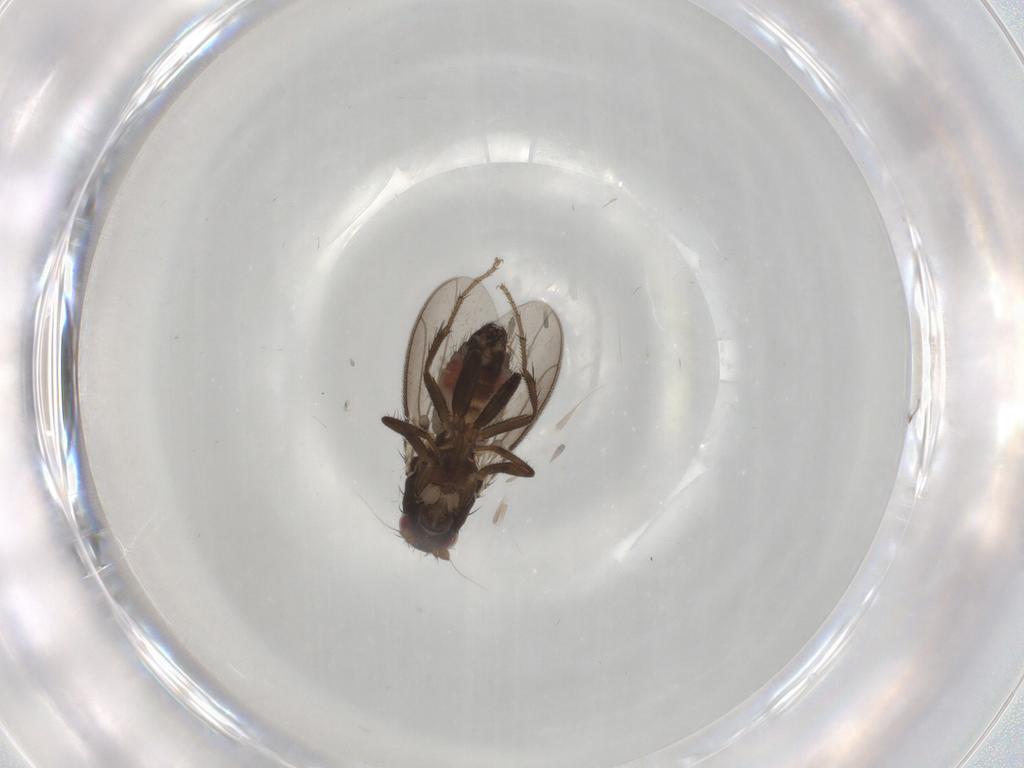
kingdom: Animalia
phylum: Arthropoda
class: Insecta
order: Diptera
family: Sphaeroceridae
